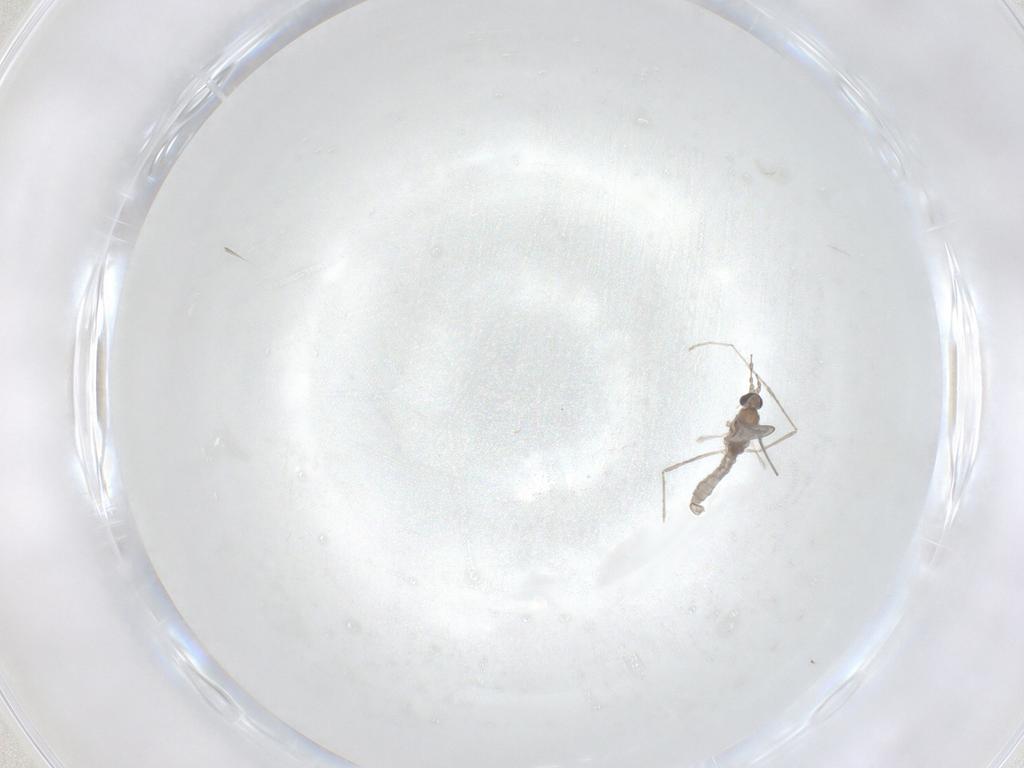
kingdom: Animalia
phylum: Arthropoda
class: Insecta
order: Diptera
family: Cecidomyiidae
